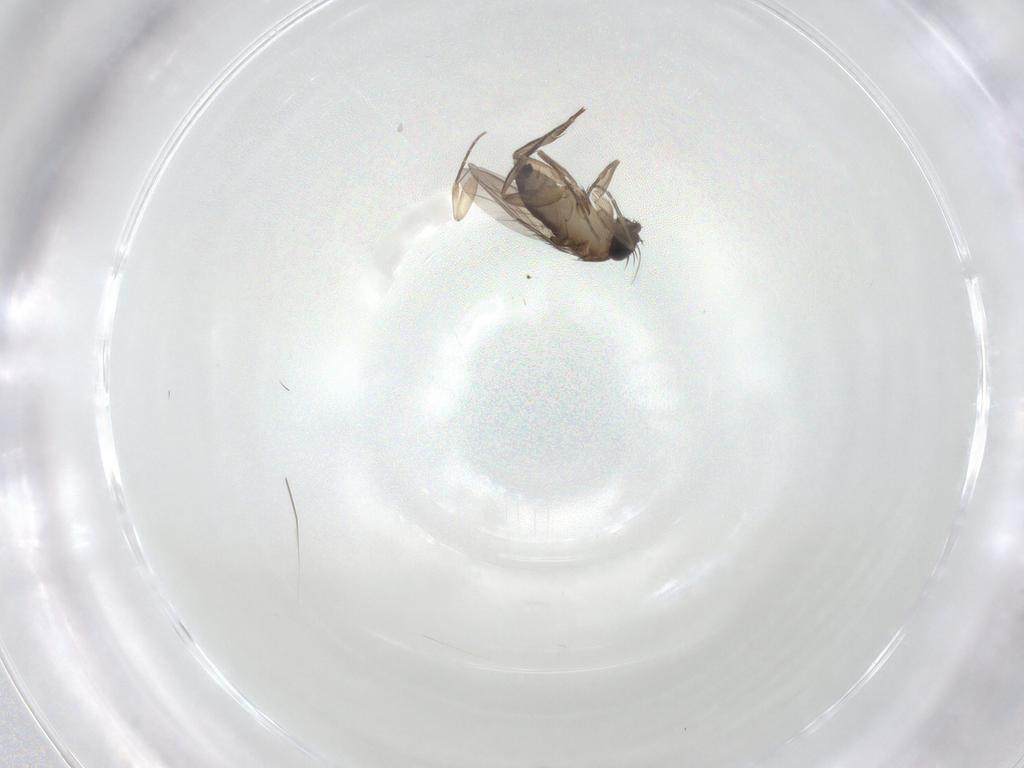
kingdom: Animalia
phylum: Arthropoda
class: Insecta
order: Diptera
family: Phoridae
